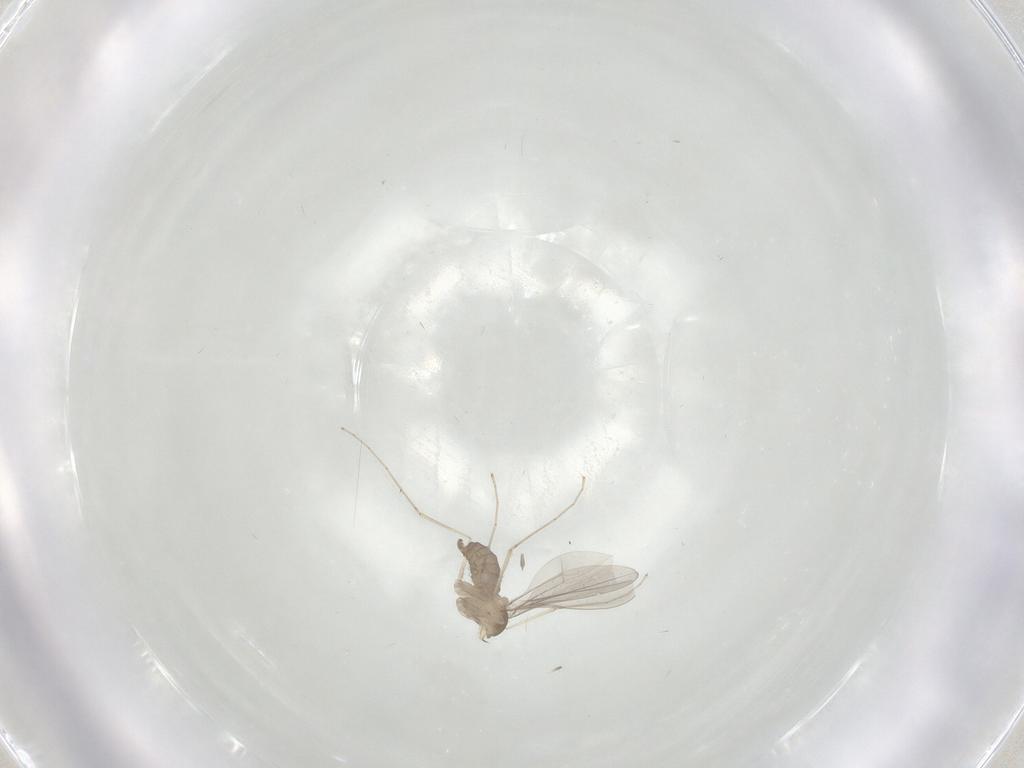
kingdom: Animalia
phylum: Arthropoda
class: Insecta
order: Diptera
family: Cecidomyiidae
